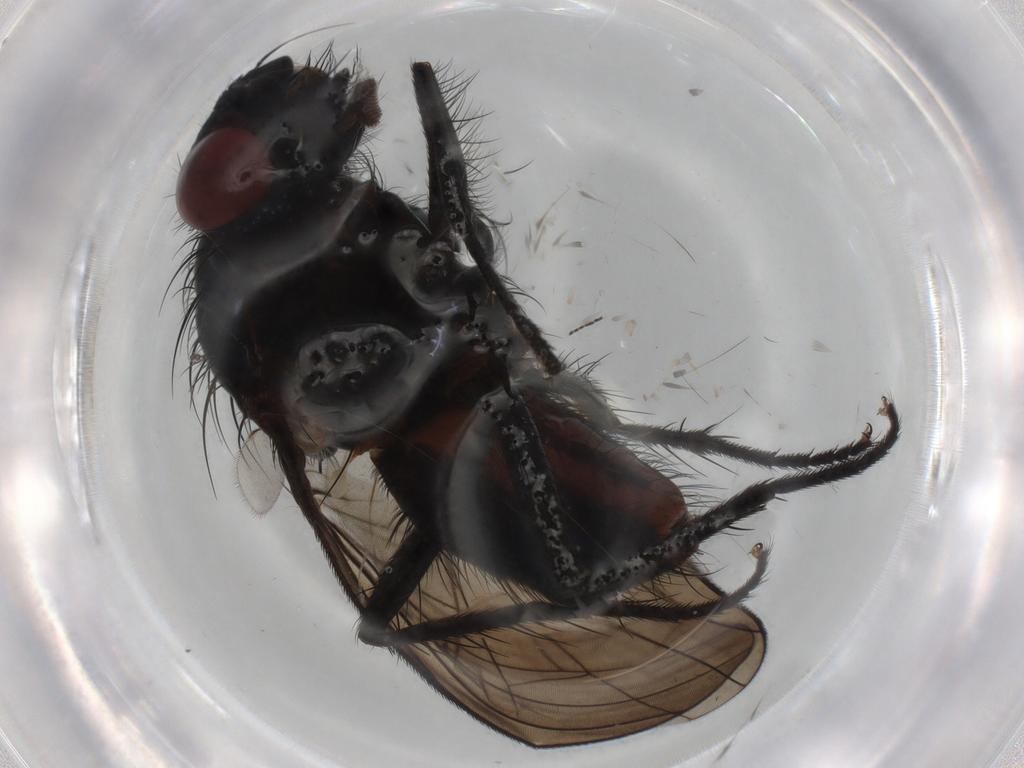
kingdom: Animalia
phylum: Arthropoda
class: Insecta
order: Diptera
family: Anthomyiidae
